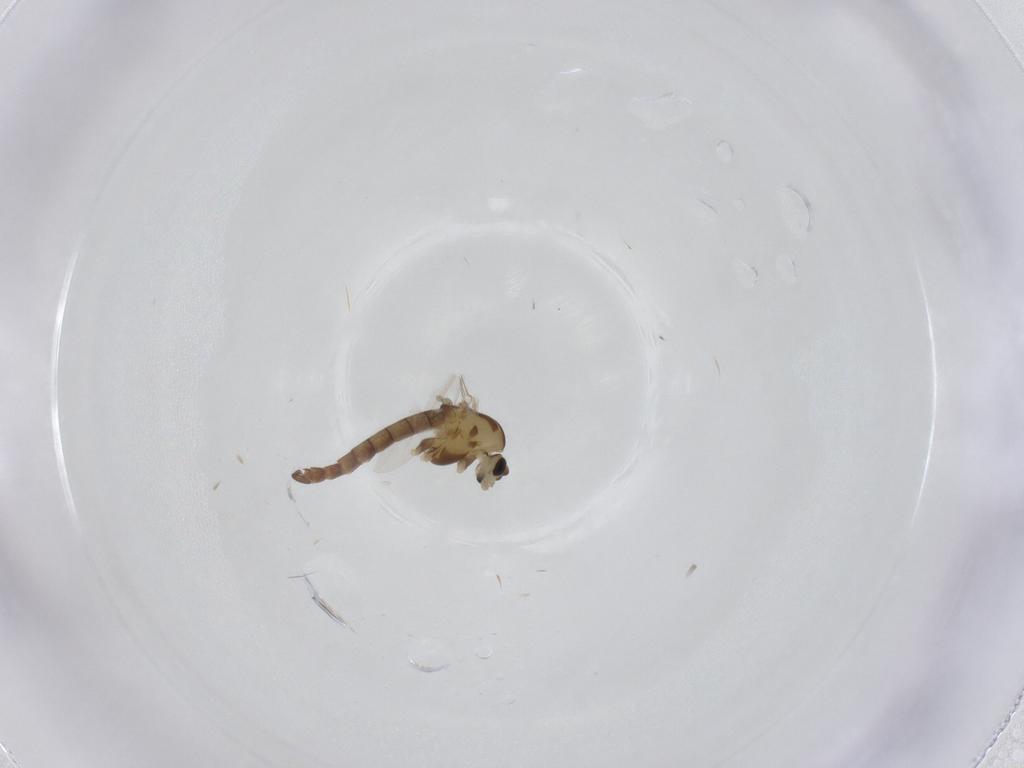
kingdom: Animalia
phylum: Arthropoda
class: Insecta
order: Diptera
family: Chironomidae
